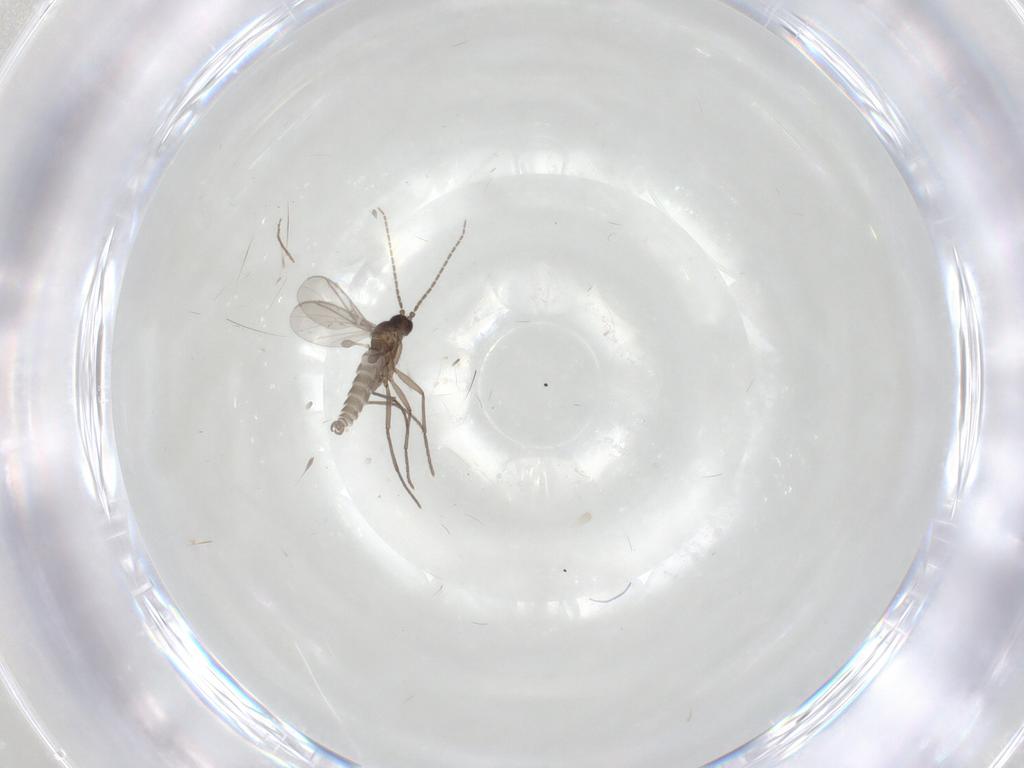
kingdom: Animalia
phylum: Arthropoda
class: Insecta
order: Diptera
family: Sciaridae
